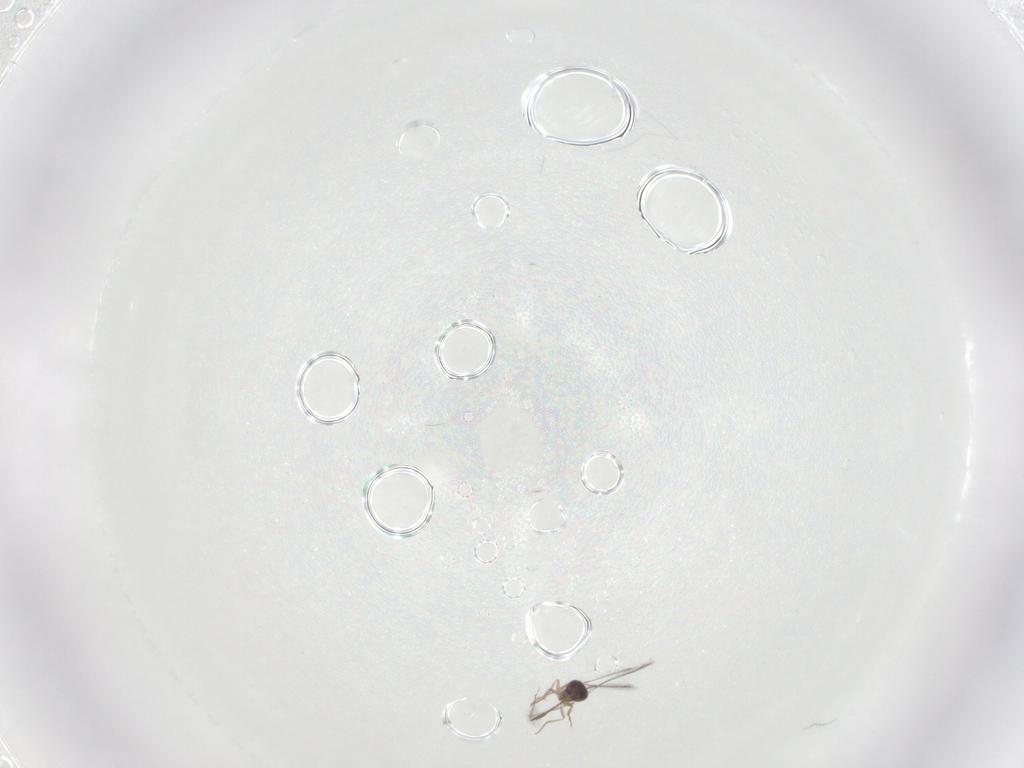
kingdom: Animalia
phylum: Arthropoda
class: Insecta
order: Hymenoptera
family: Mymaridae
